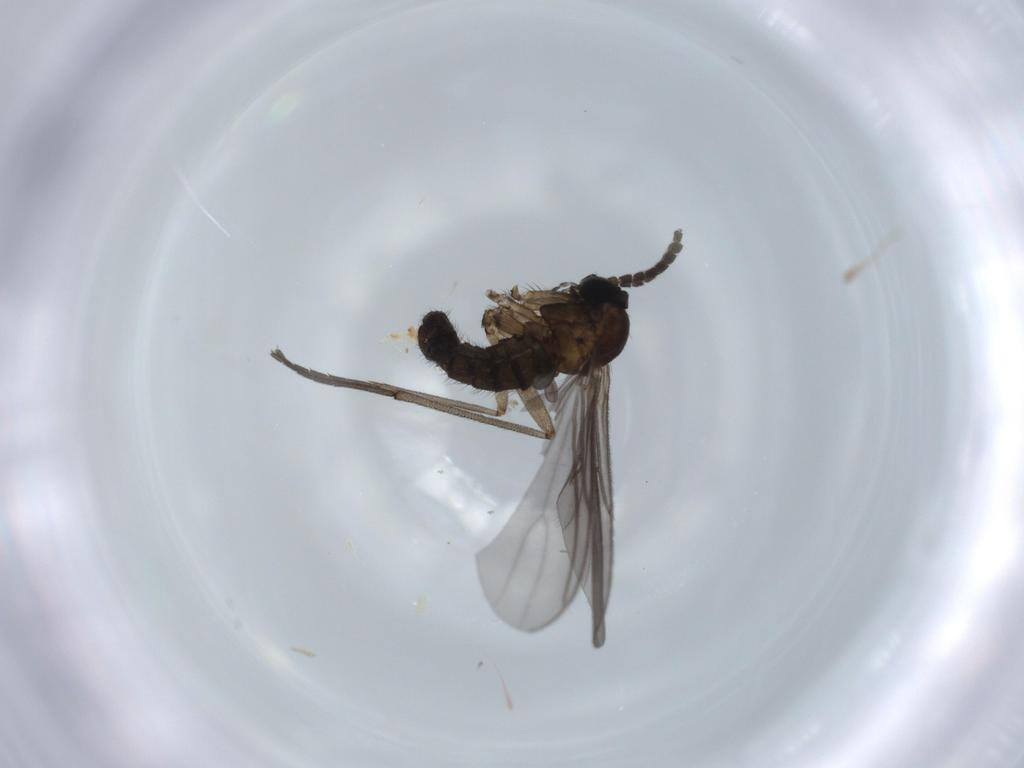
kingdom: Animalia
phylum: Arthropoda
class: Insecta
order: Diptera
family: Sciaridae
